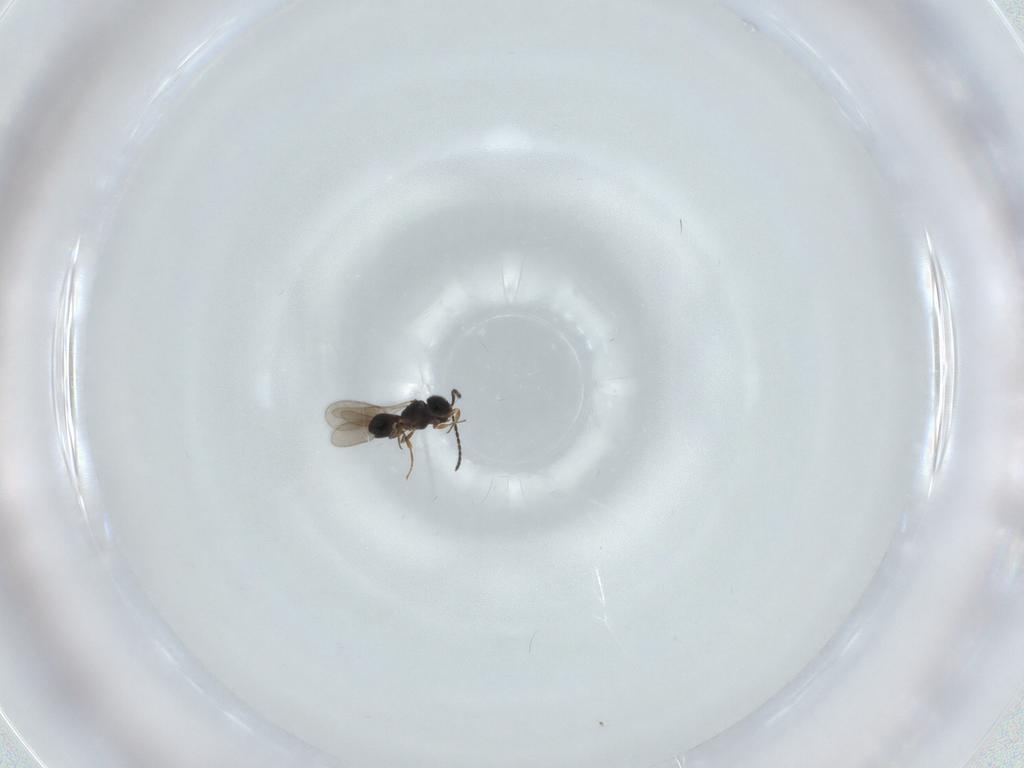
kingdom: Animalia
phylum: Arthropoda
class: Insecta
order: Hymenoptera
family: Scelionidae
